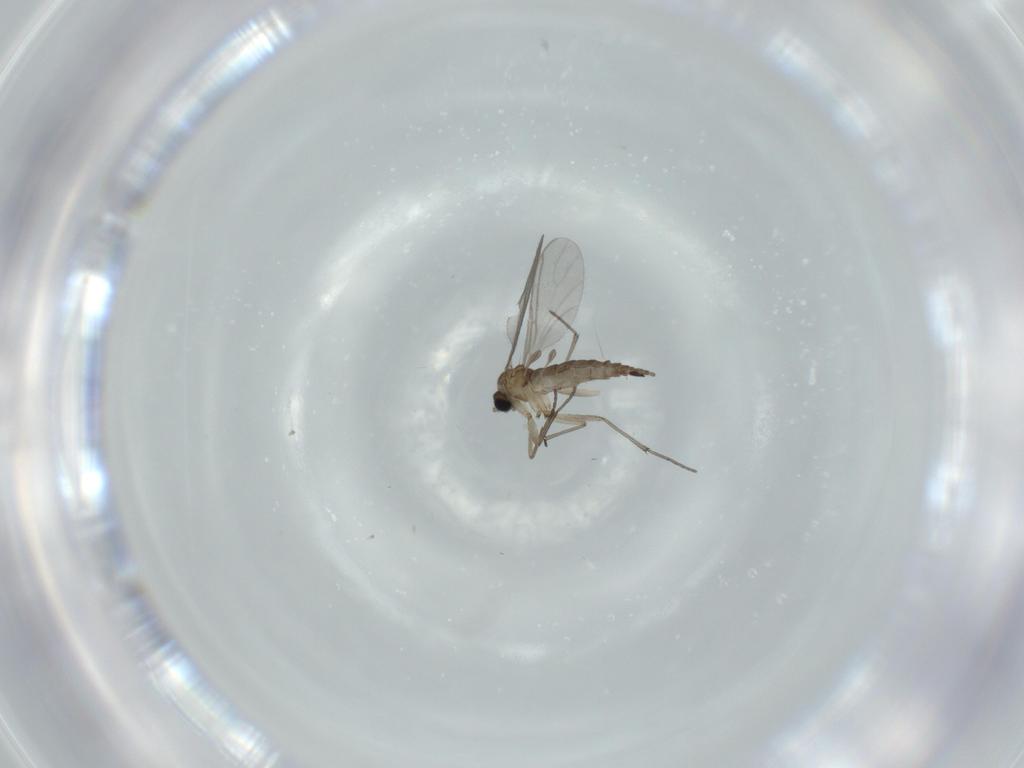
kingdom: Animalia
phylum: Arthropoda
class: Insecta
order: Diptera
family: Sciaridae
